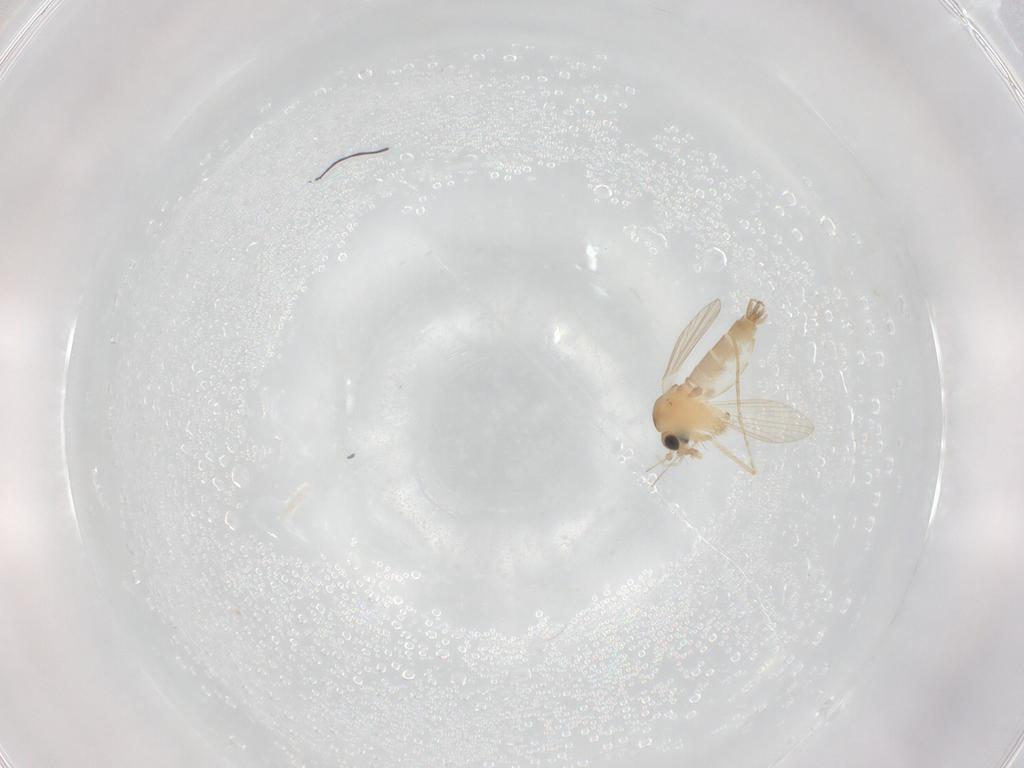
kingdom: Animalia
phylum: Arthropoda
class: Insecta
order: Diptera
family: Psychodidae
